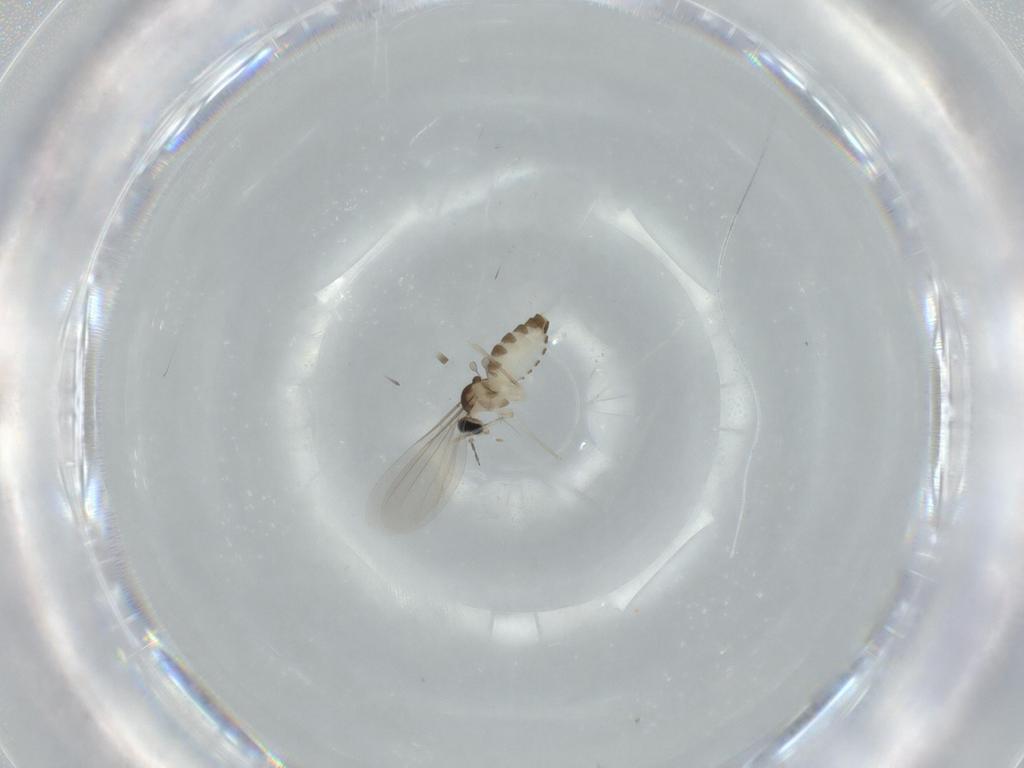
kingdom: Animalia
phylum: Arthropoda
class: Insecta
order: Diptera
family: Cecidomyiidae
